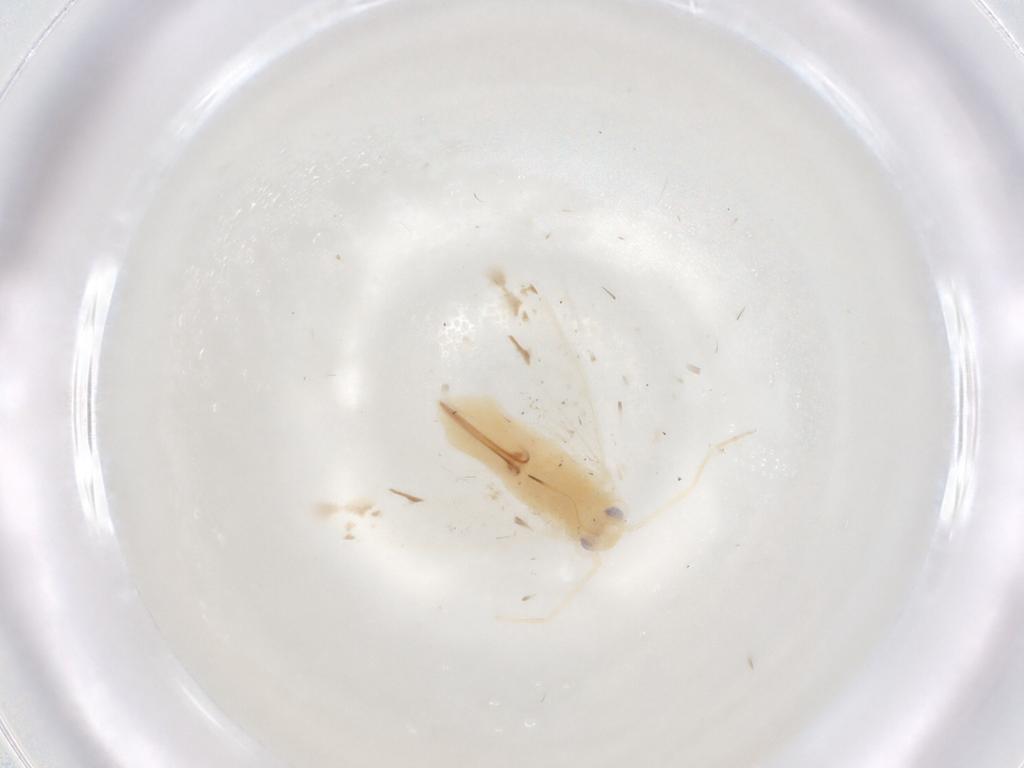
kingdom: Animalia
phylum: Arthropoda
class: Insecta
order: Hemiptera
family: Miridae
